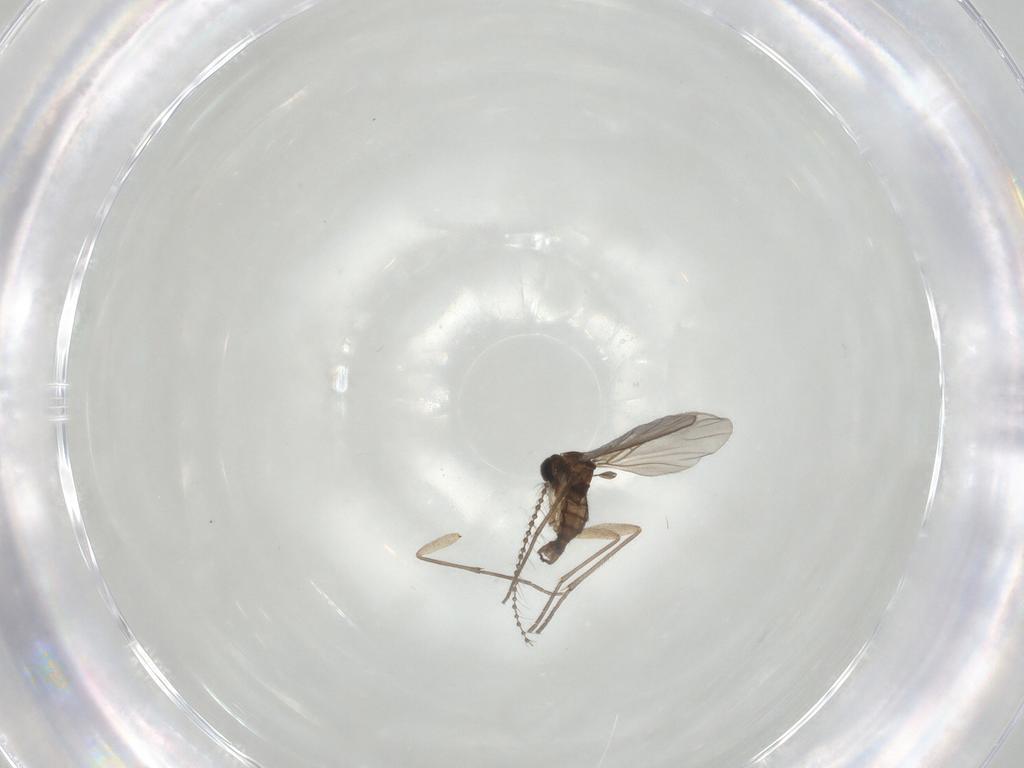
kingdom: Animalia
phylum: Arthropoda
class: Insecta
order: Diptera
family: Sciaridae
